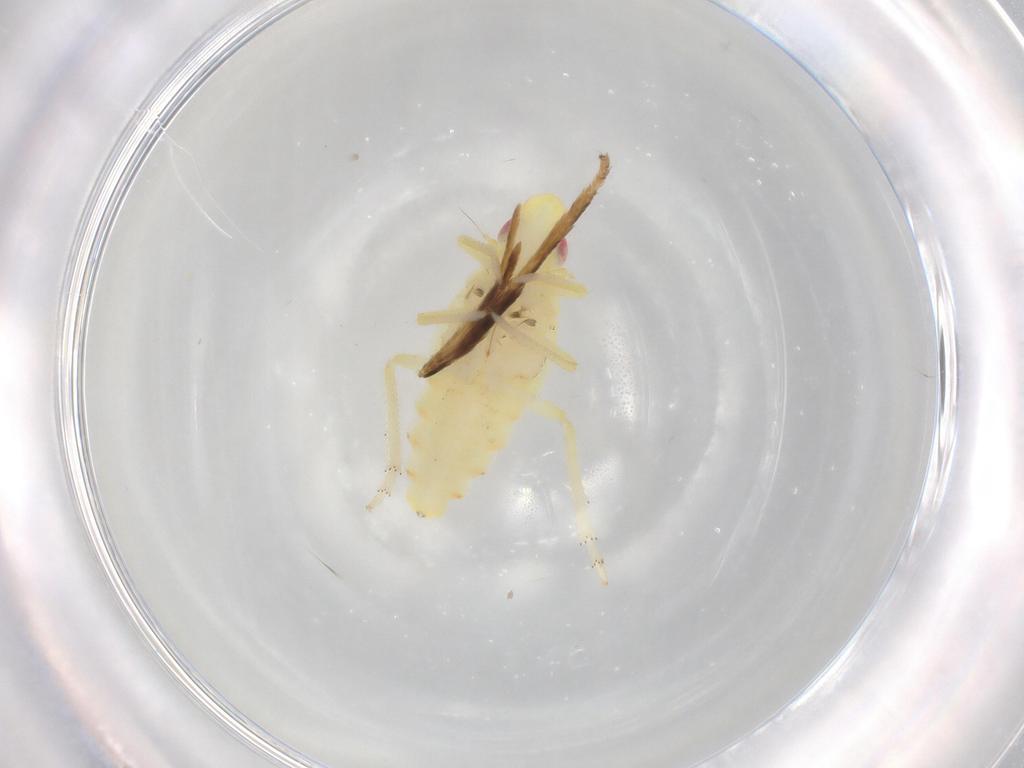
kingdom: Animalia
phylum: Arthropoda
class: Insecta
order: Hemiptera
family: Tropiduchidae
